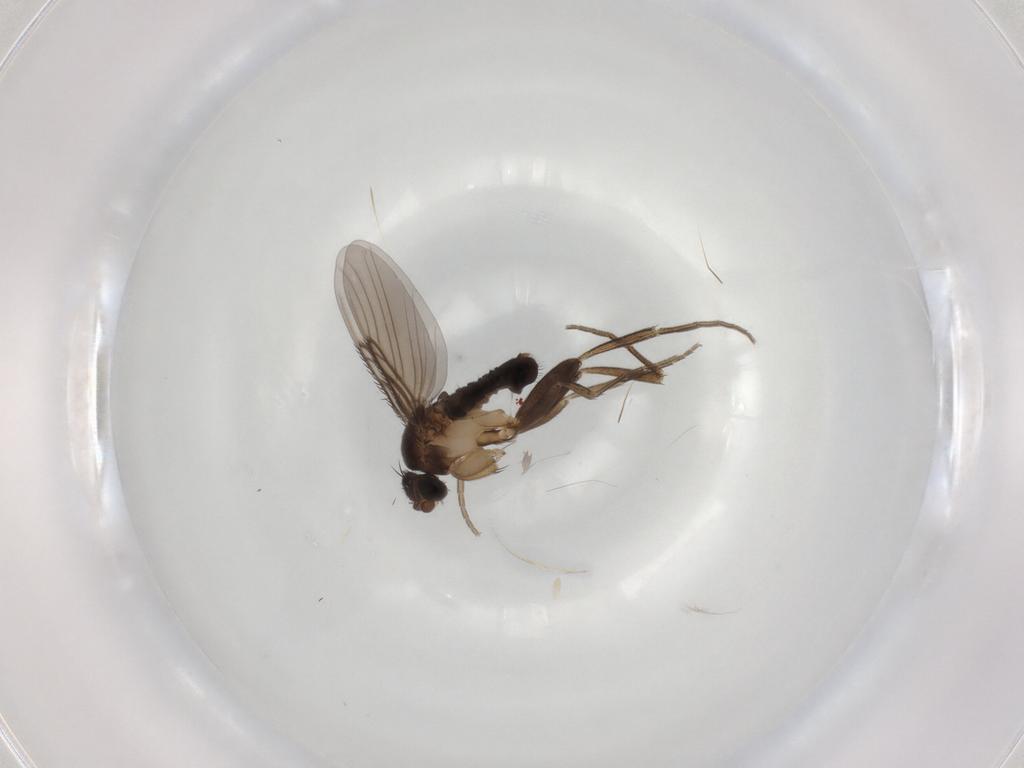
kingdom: Animalia
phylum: Arthropoda
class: Insecta
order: Diptera
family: Phoridae
